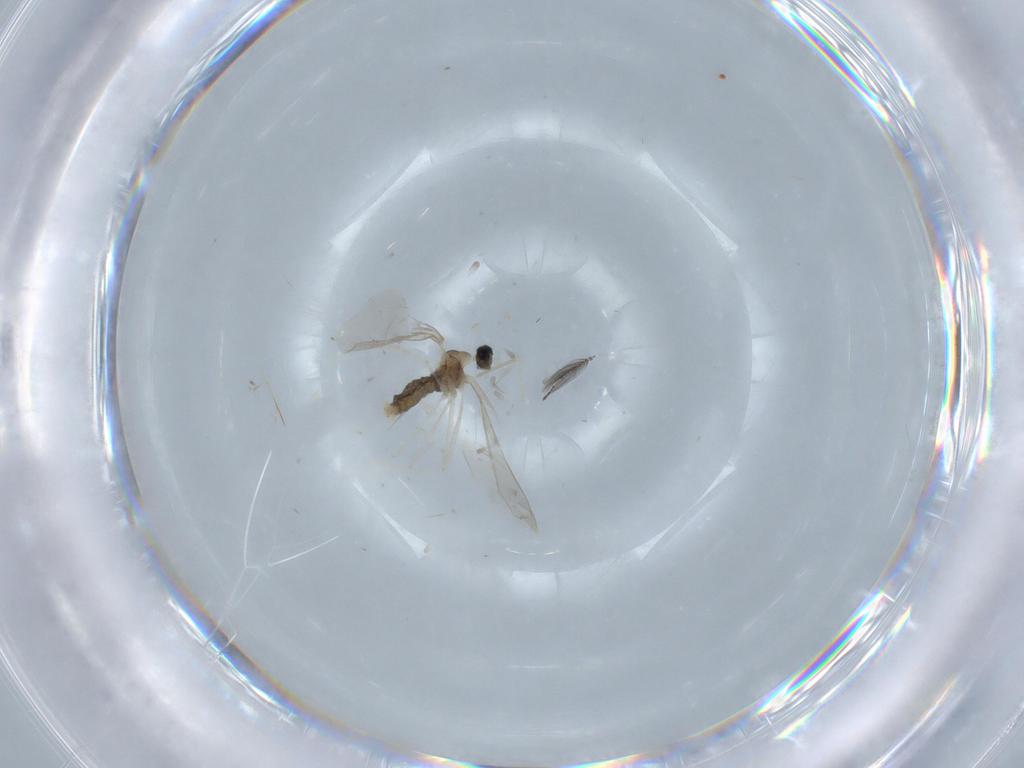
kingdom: Animalia
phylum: Arthropoda
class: Insecta
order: Diptera
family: Ceratopogonidae
